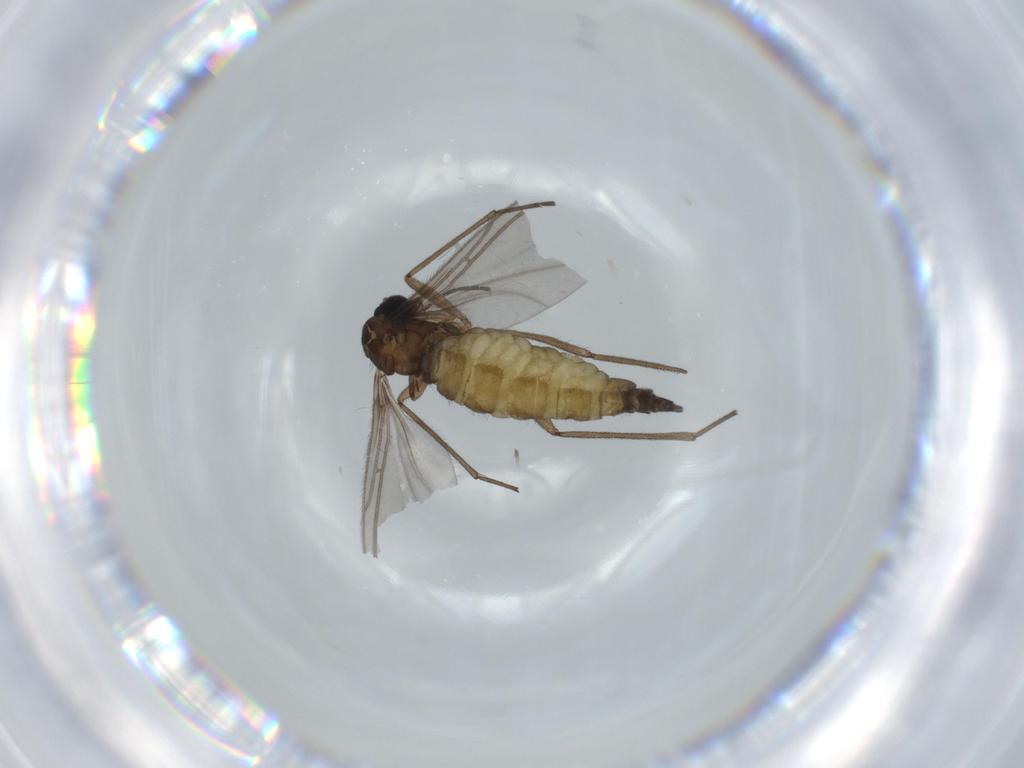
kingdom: Animalia
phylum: Arthropoda
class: Insecta
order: Diptera
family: Sciaridae
